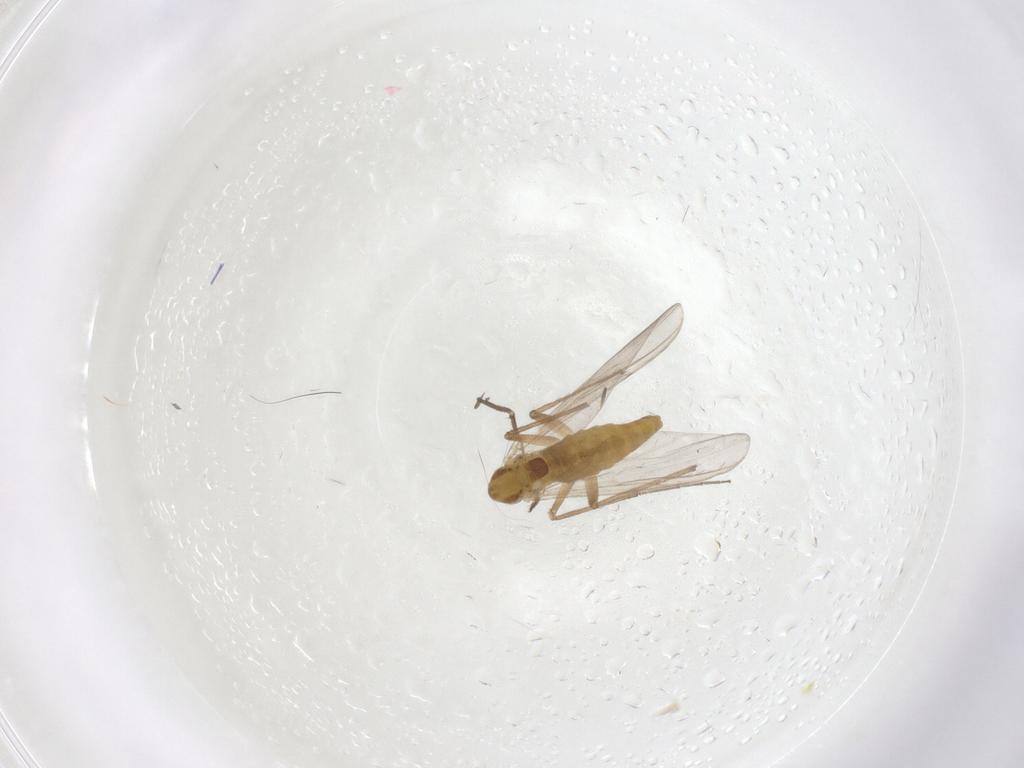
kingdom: Animalia
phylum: Arthropoda
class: Insecta
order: Diptera
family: Chironomidae
